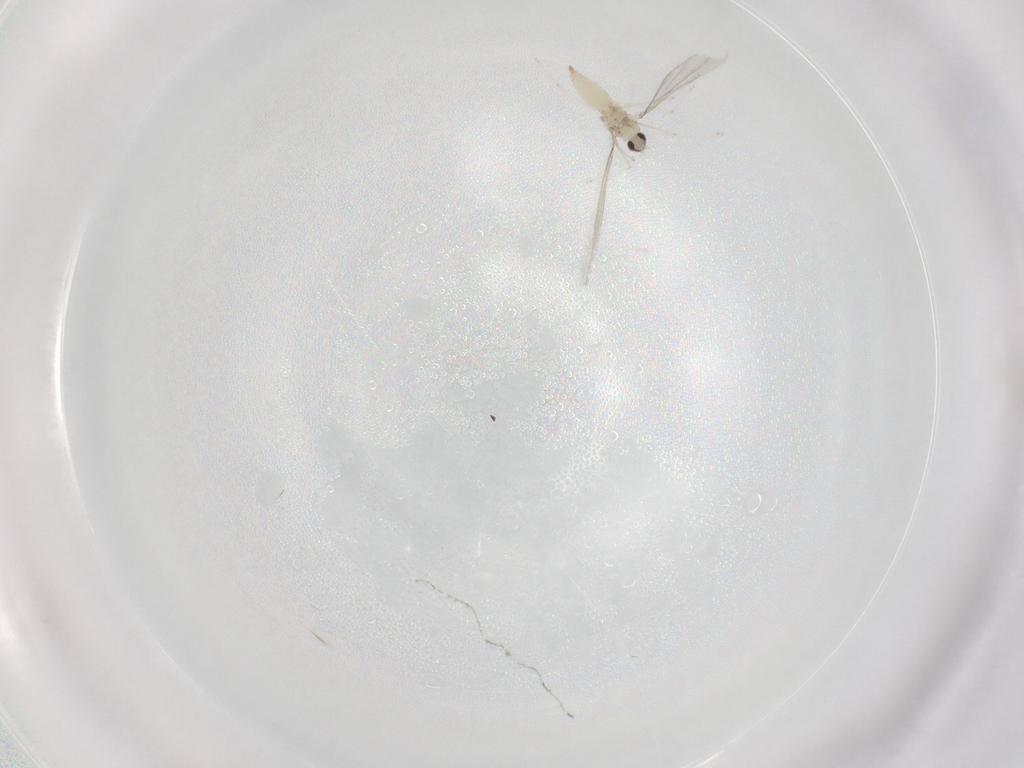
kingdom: Animalia
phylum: Arthropoda
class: Insecta
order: Diptera
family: Cecidomyiidae
